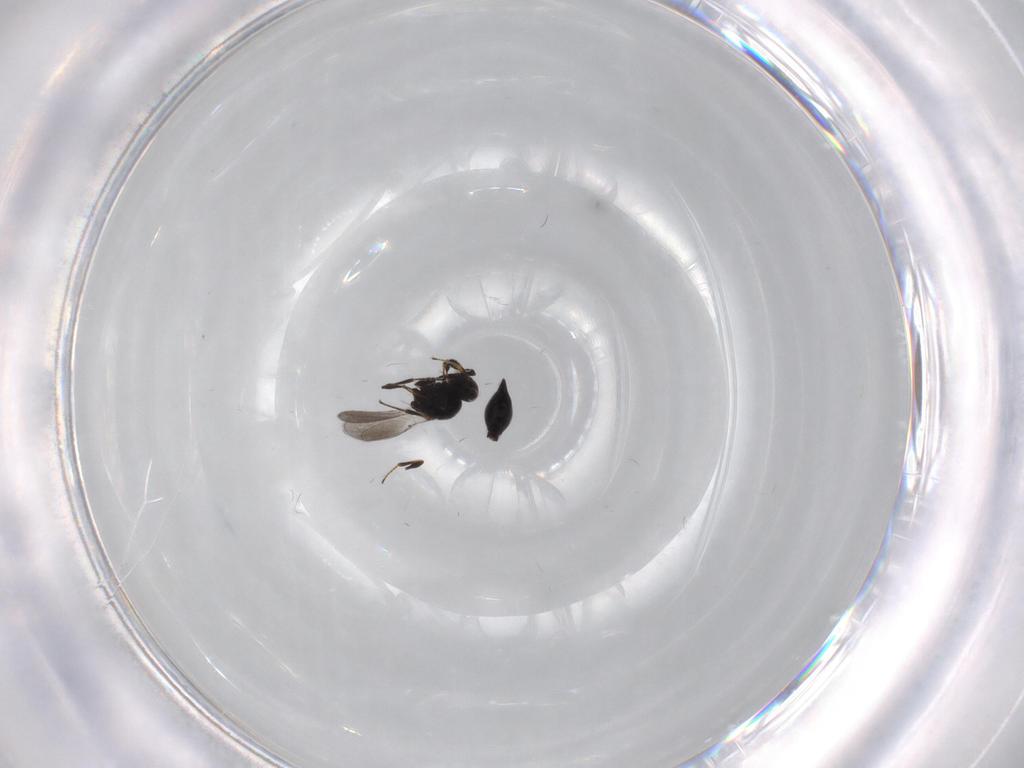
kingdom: Animalia
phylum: Arthropoda
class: Insecta
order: Hymenoptera
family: Platygastridae
